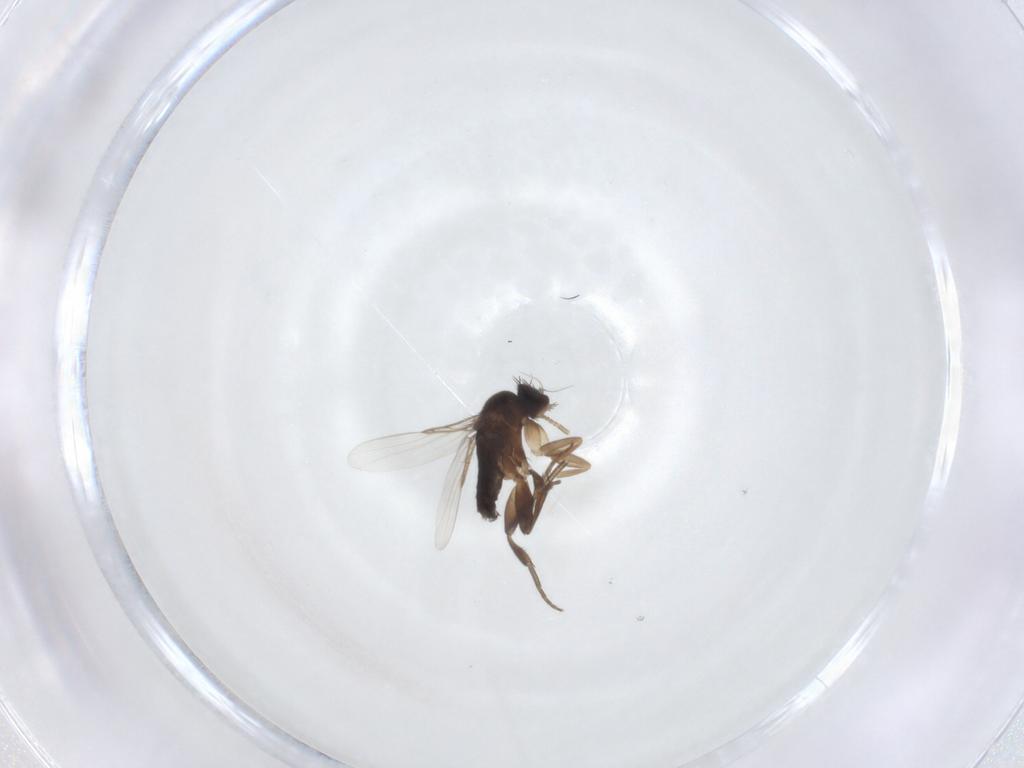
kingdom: Animalia
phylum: Arthropoda
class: Insecta
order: Diptera
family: Phoridae
